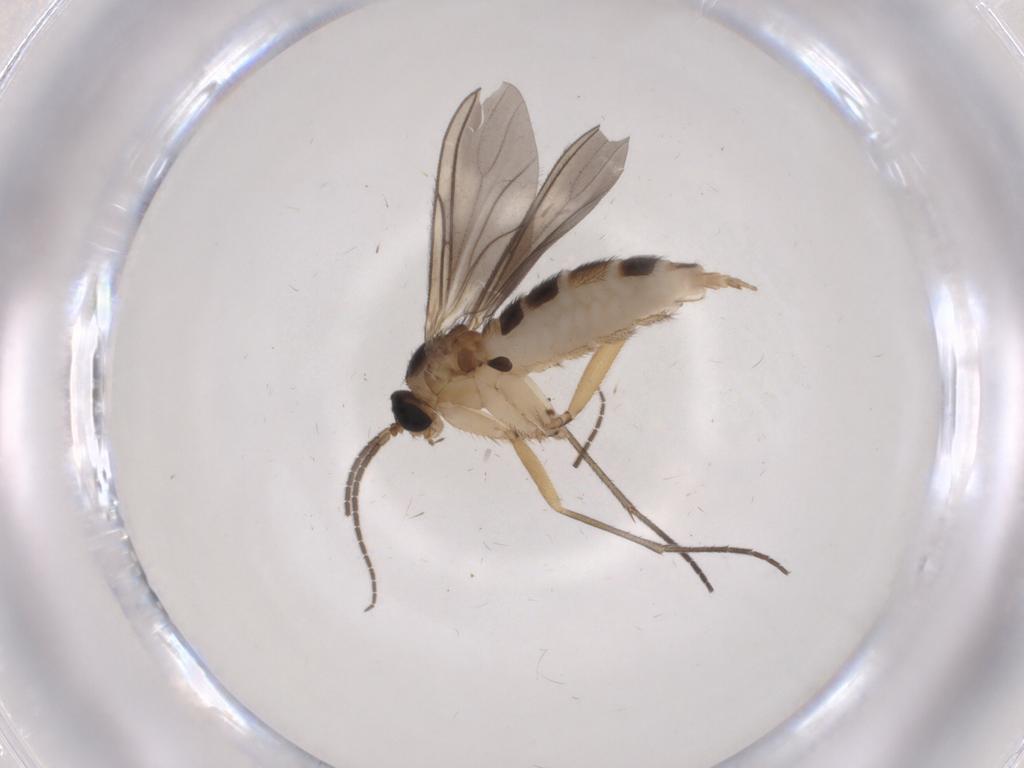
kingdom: Animalia
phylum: Arthropoda
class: Insecta
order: Diptera
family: Sciaridae
